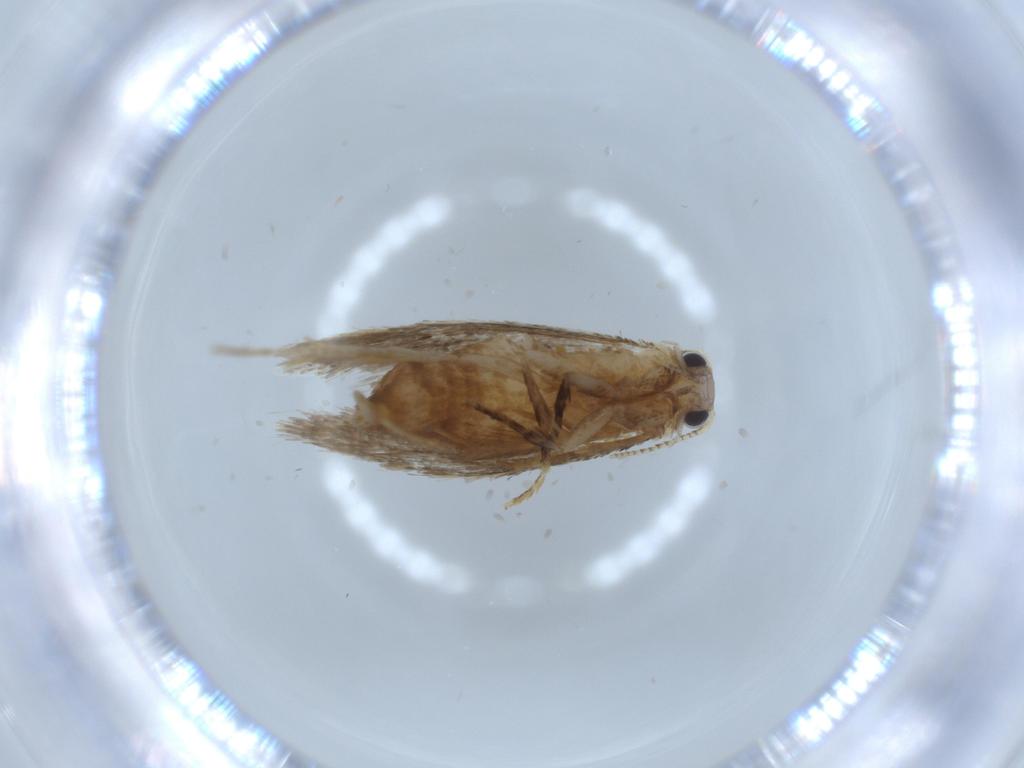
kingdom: Animalia
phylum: Arthropoda
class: Insecta
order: Lepidoptera
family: Tineidae
